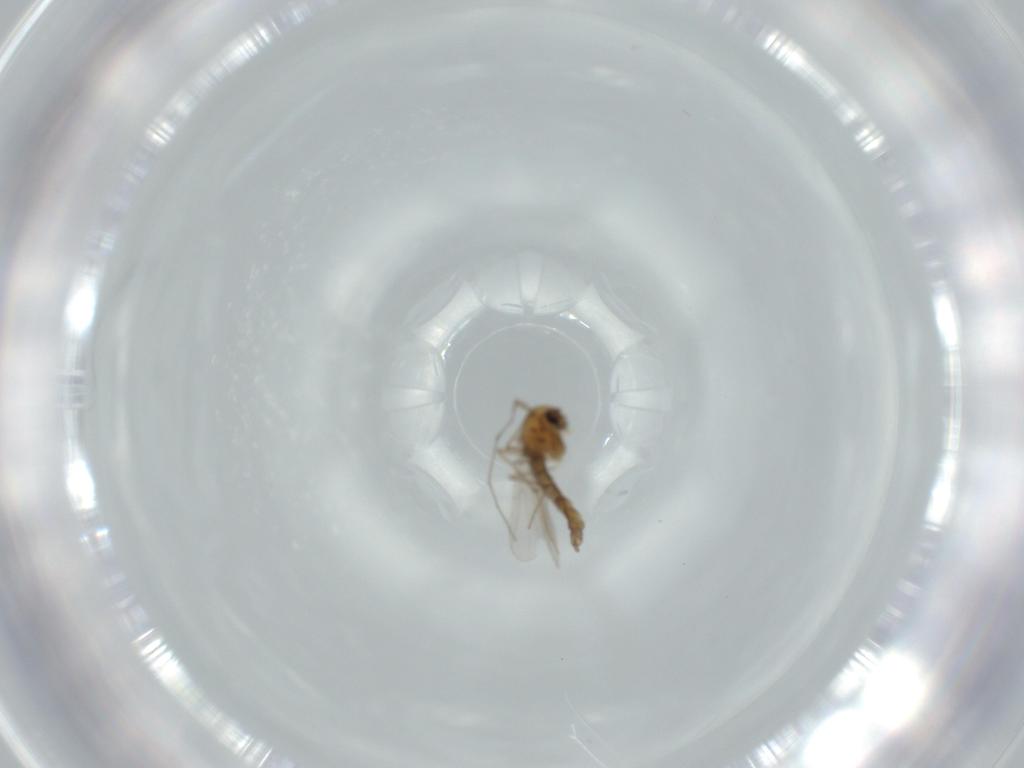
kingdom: Animalia
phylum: Arthropoda
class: Insecta
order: Diptera
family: Chironomidae
